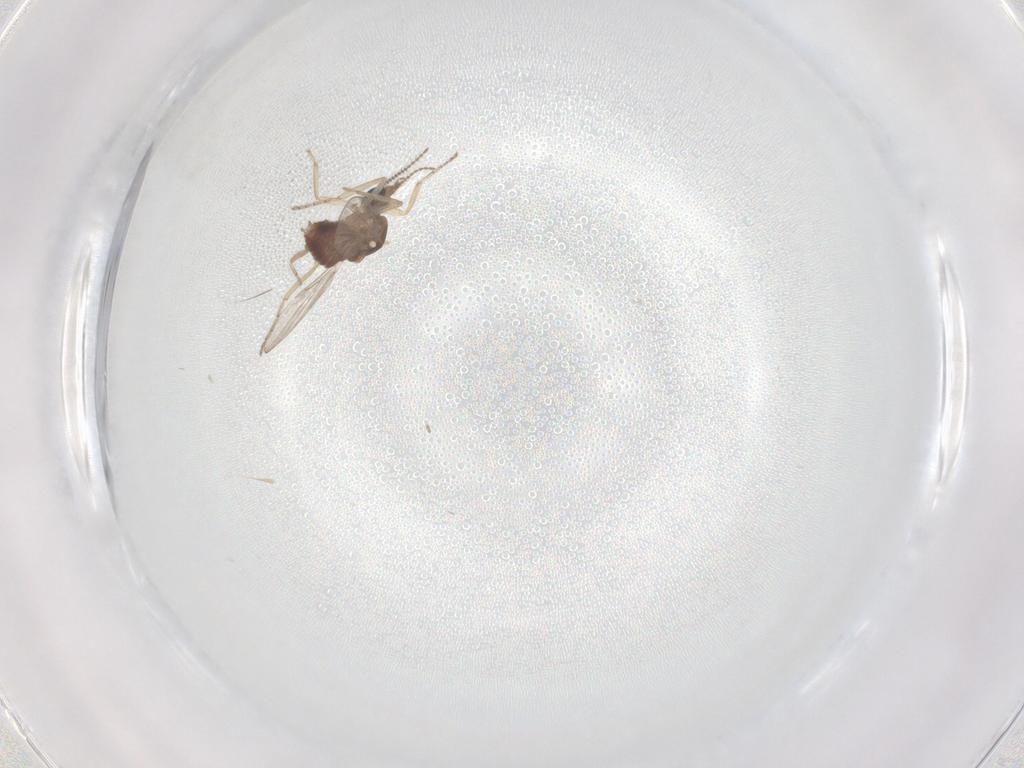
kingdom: Animalia
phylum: Arthropoda
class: Insecta
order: Diptera
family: Ceratopogonidae
